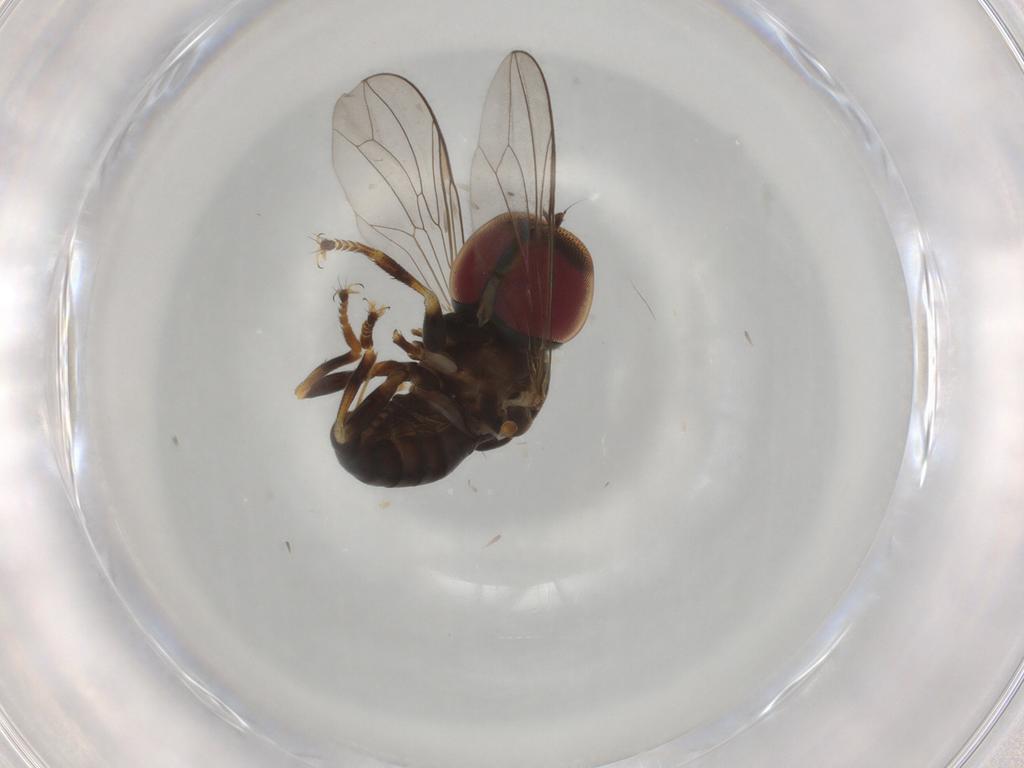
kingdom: Animalia
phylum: Arthropoda
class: Insecta
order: Diptera
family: Pipunculidae
